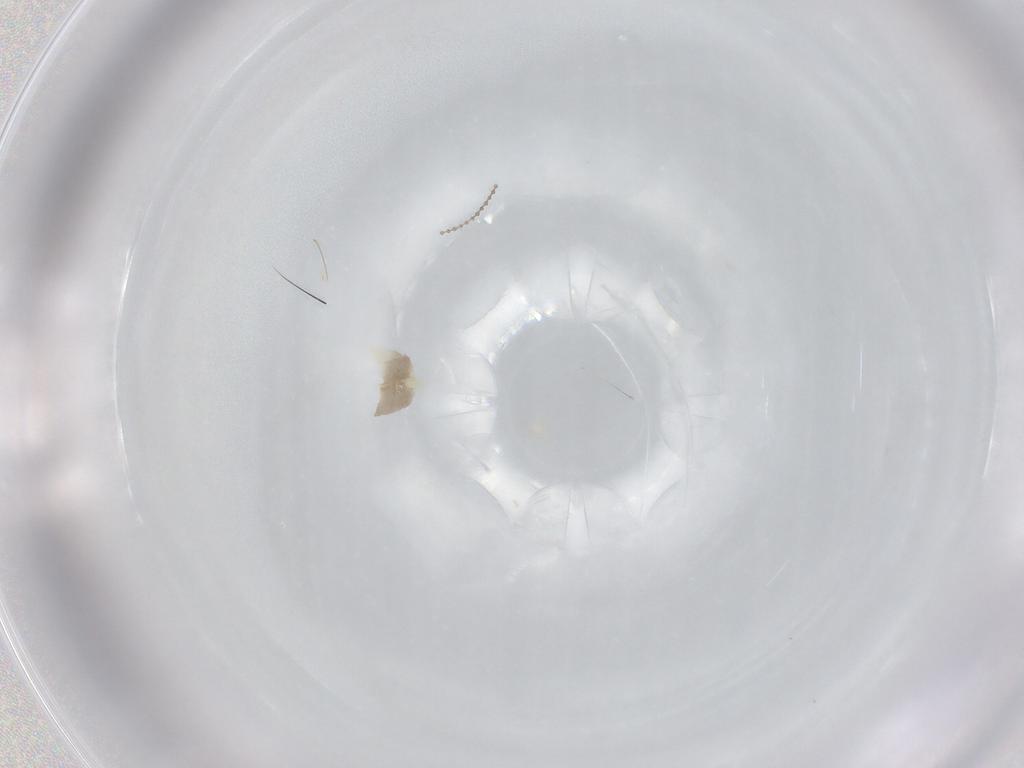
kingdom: Animalia
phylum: Arthropoda
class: Collembola
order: Entomobryomorpha
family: Entomobryidae
